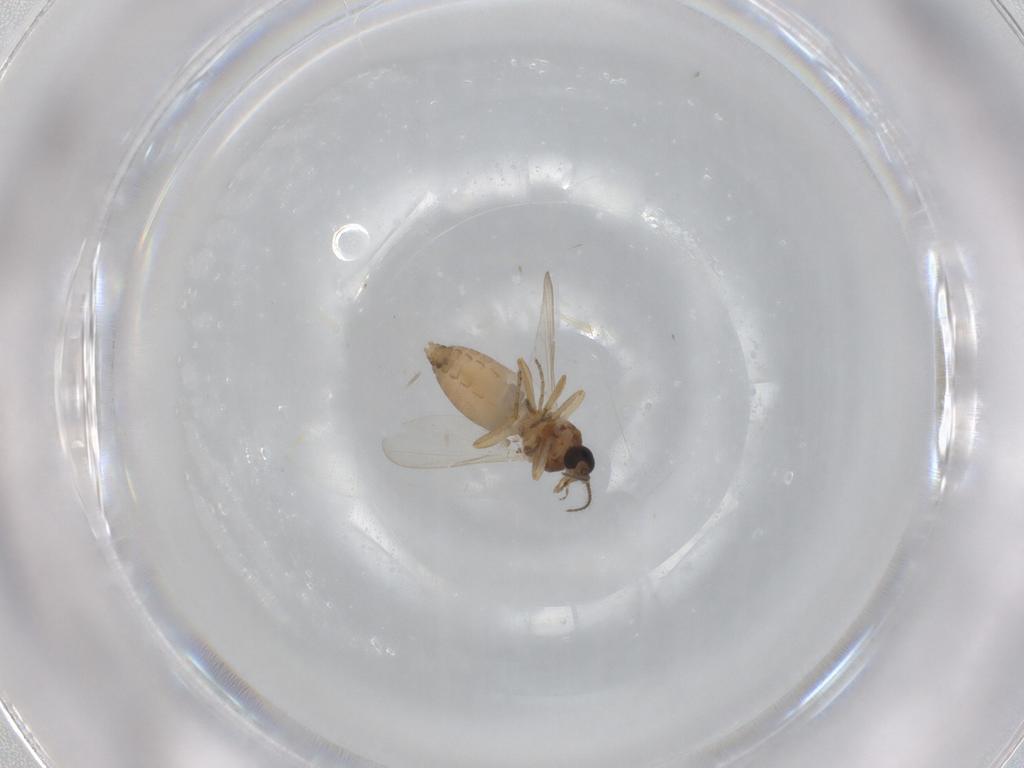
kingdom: Animalia
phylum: Arthropoda
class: Insecta
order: Diptera
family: Ceratopogonidae
